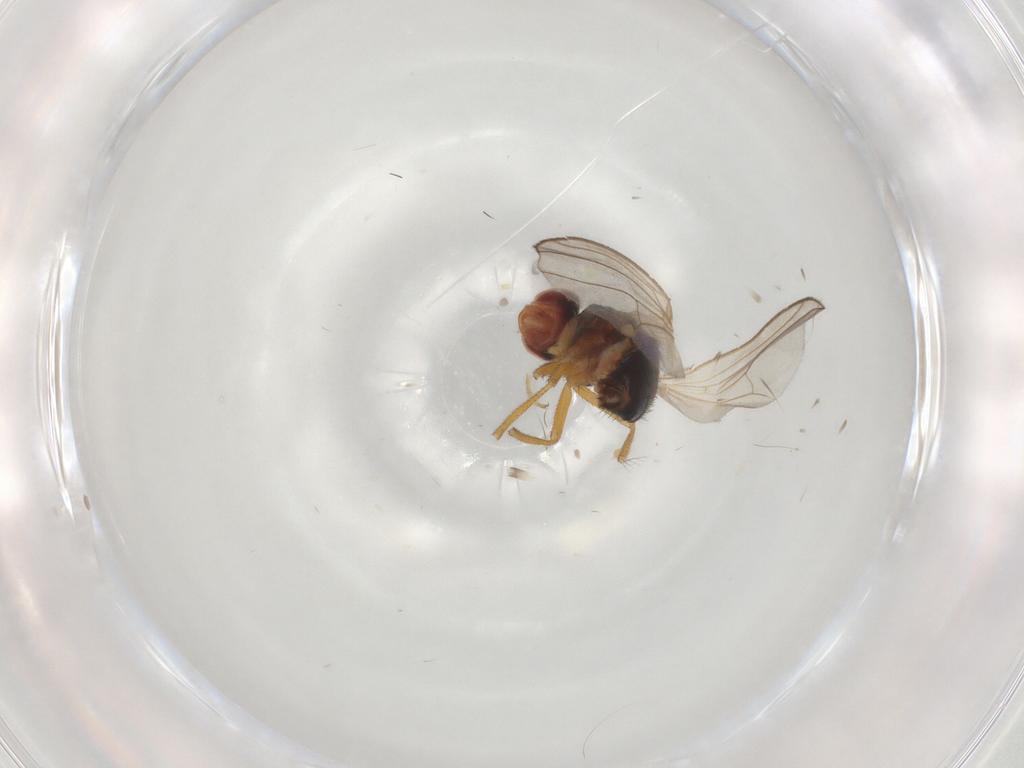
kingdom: Animalia
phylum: Arthropoda
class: Insecta
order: Diptera
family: Drosophilidae
